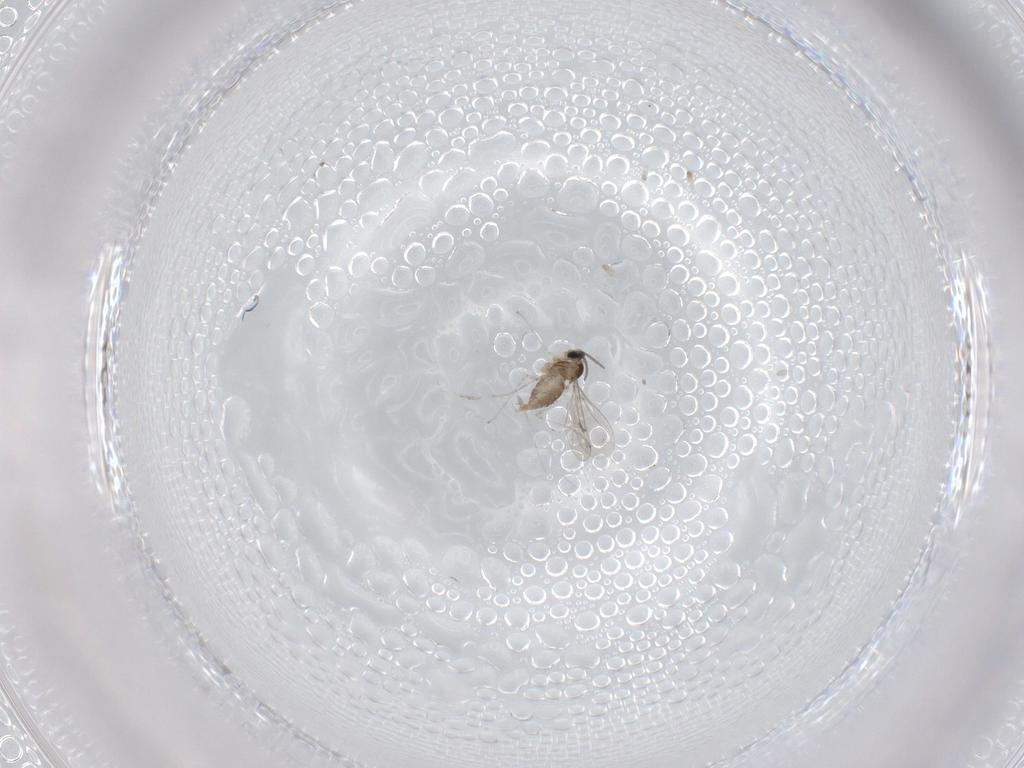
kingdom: Animalia
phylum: Arthropoda
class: Insecta
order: Diptera
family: Cecidomyiidae
